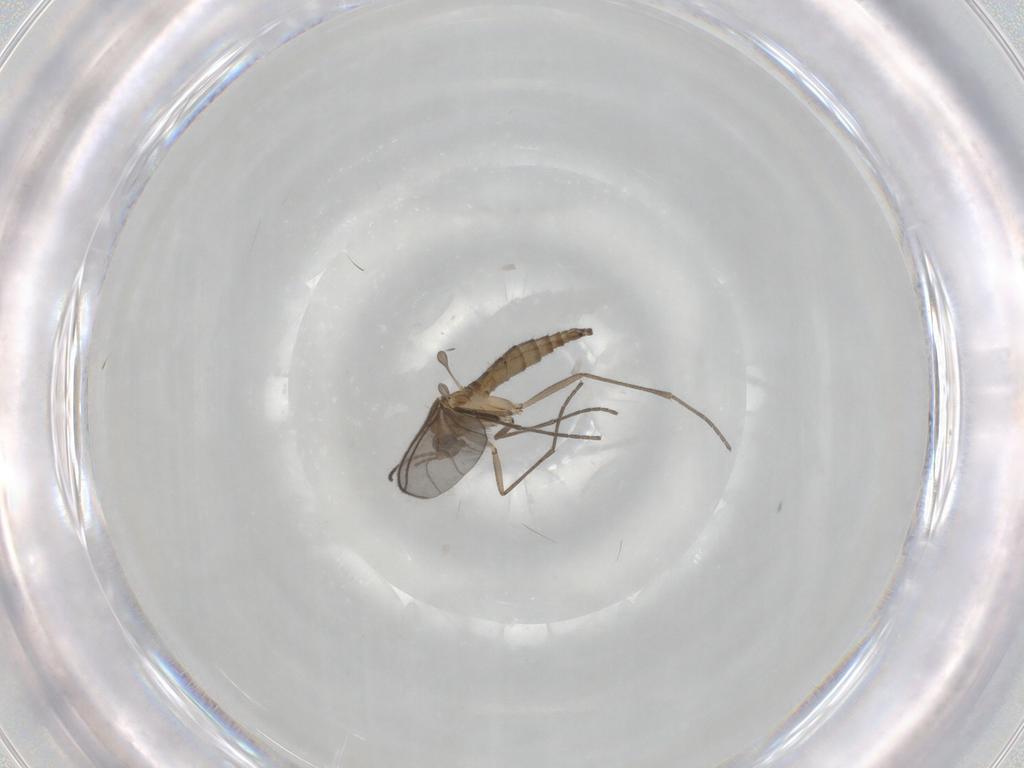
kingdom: Animalia
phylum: Arthropoda
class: Insecta
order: Diptera
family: Sciaridae
